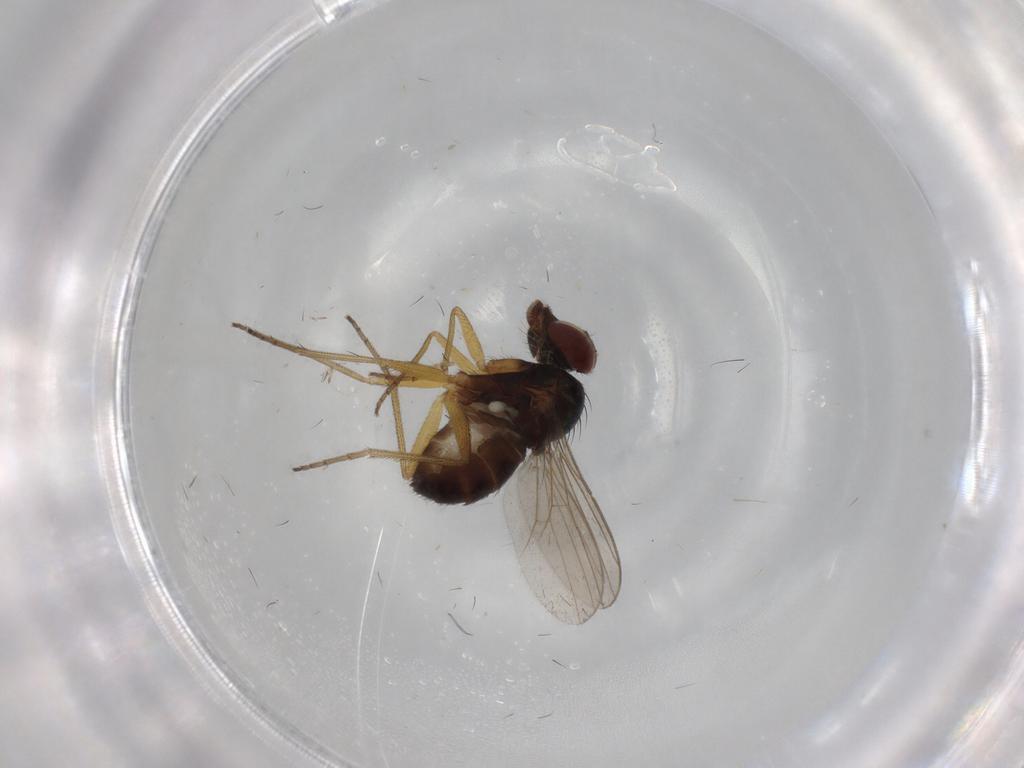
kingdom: Animalia
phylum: Arthropoda
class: Insecta
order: Diptera
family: Dolichopodidae
